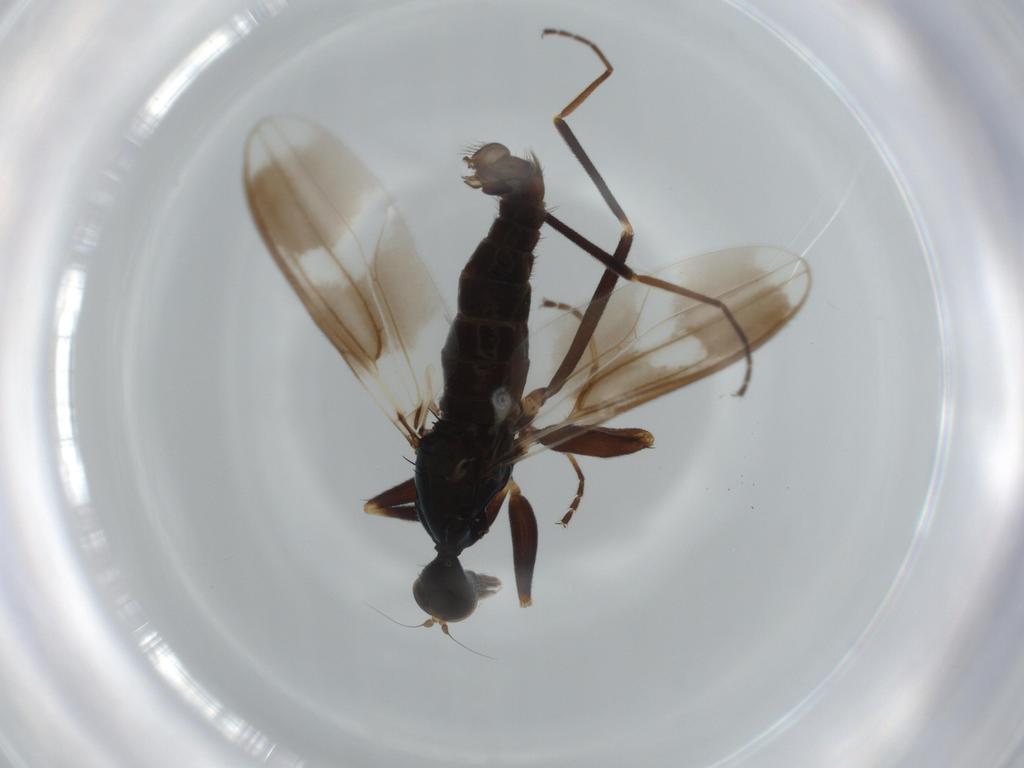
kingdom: Animalia
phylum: Arthropoda
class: Insecta
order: Diptera
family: Hybotidae
